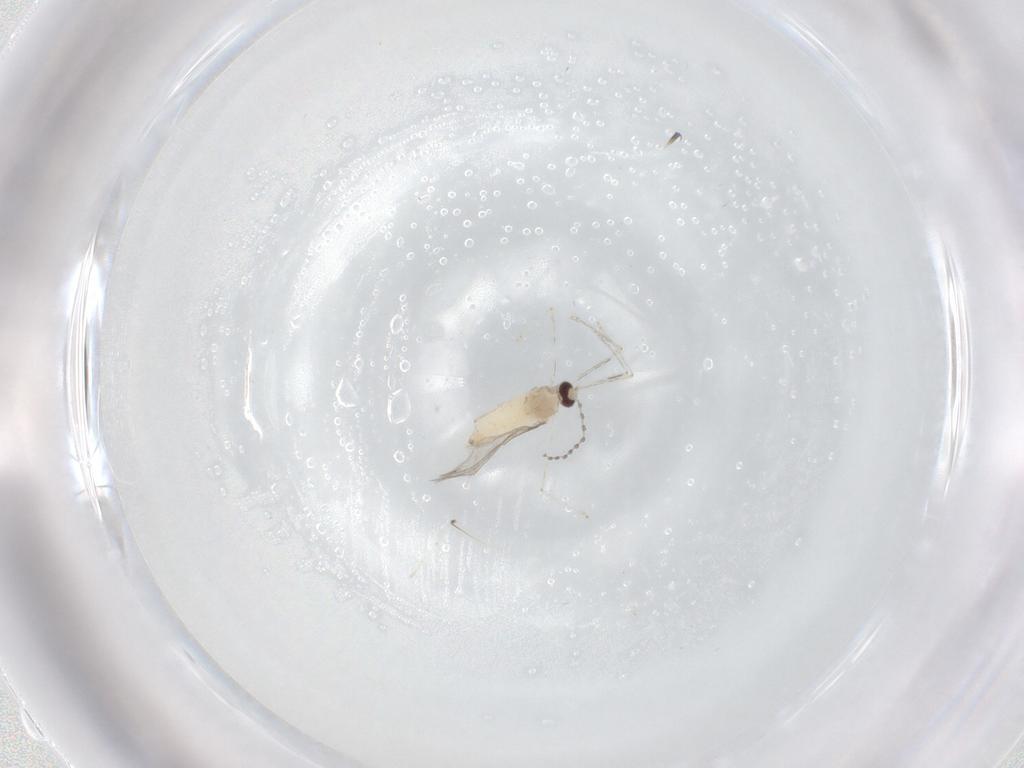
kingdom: Animalia
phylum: Arthropoda
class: Insecta
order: Diptera
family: Cecidomyiidae
